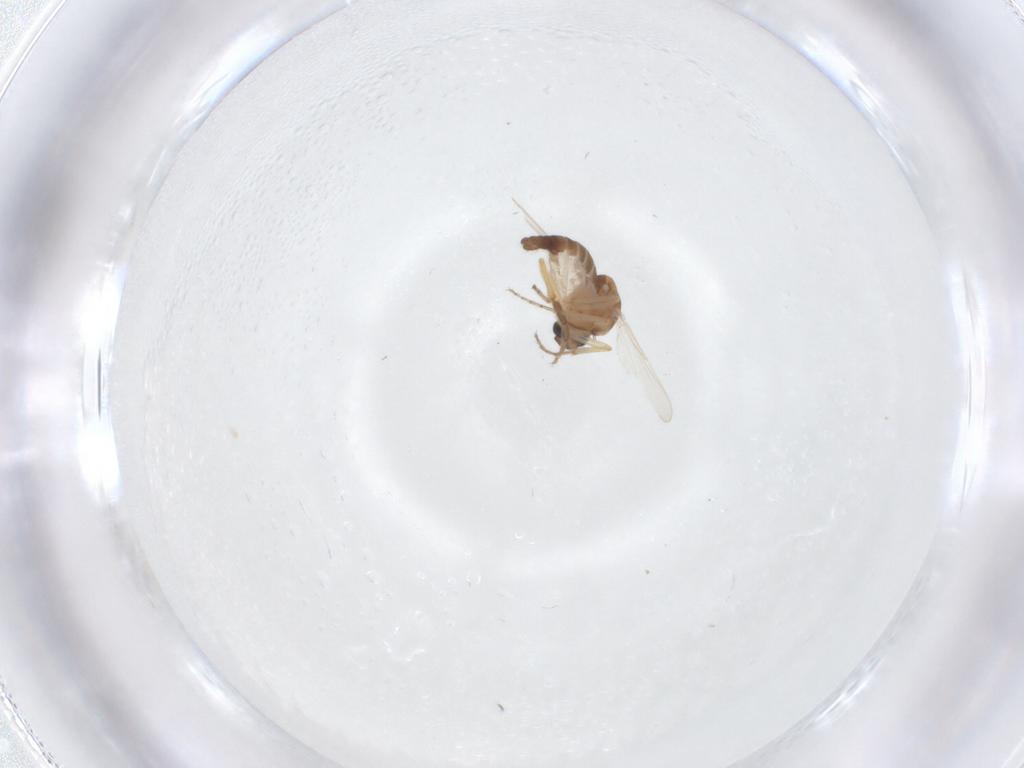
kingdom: Animalia
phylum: Arthropoda
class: Insecta
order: Diptera
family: Ceratopogonidae
